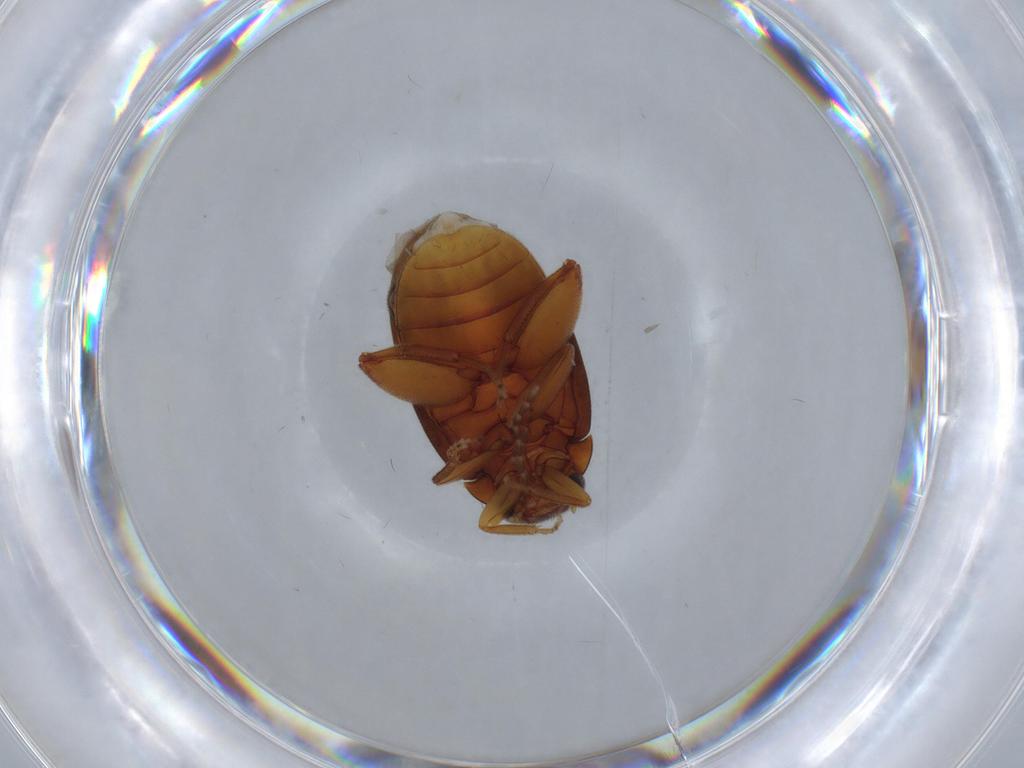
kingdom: Animalia
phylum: Arthropoda
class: Insecta
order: Coleoptera
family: Scirtidae
